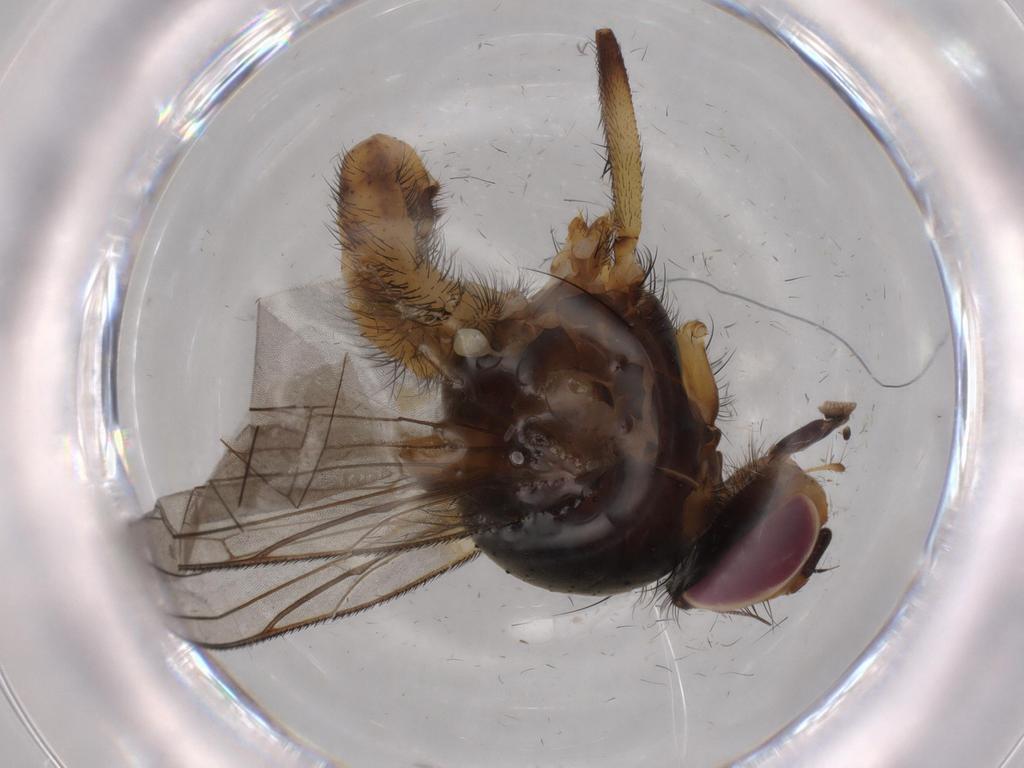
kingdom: Animalia
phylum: Arthropoda
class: Insecta
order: Diptera
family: Anthomyiidae
